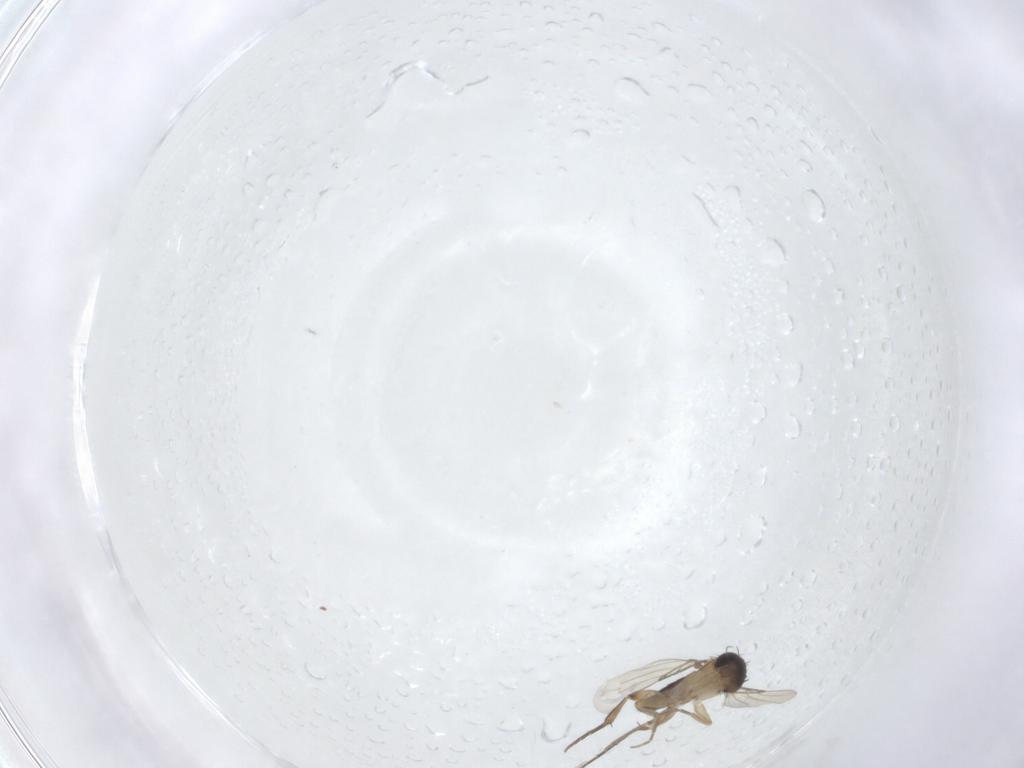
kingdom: Animalia
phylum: Arthropoda
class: Insecta
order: Diptera
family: Phoridae
